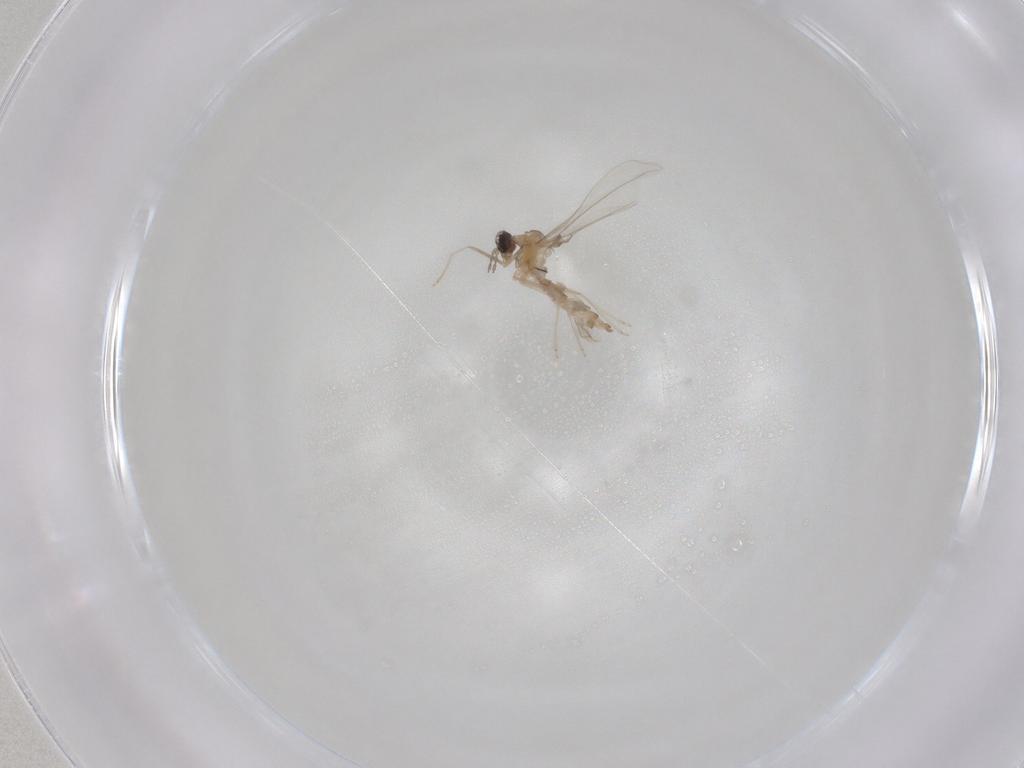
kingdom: Animalia
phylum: Arthropoda
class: Insecta
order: Diptera
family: Cecidomyiidae
